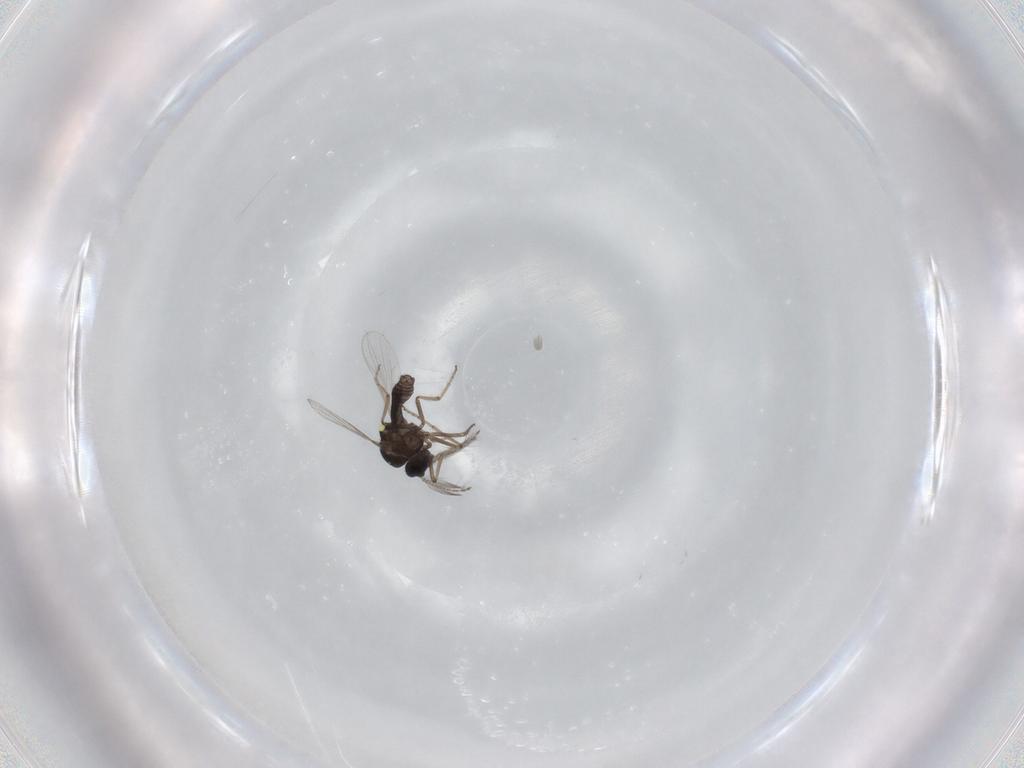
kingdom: Animalia
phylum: Arthropoda
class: Insecta
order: Diptera
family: Ceratopogonidae
